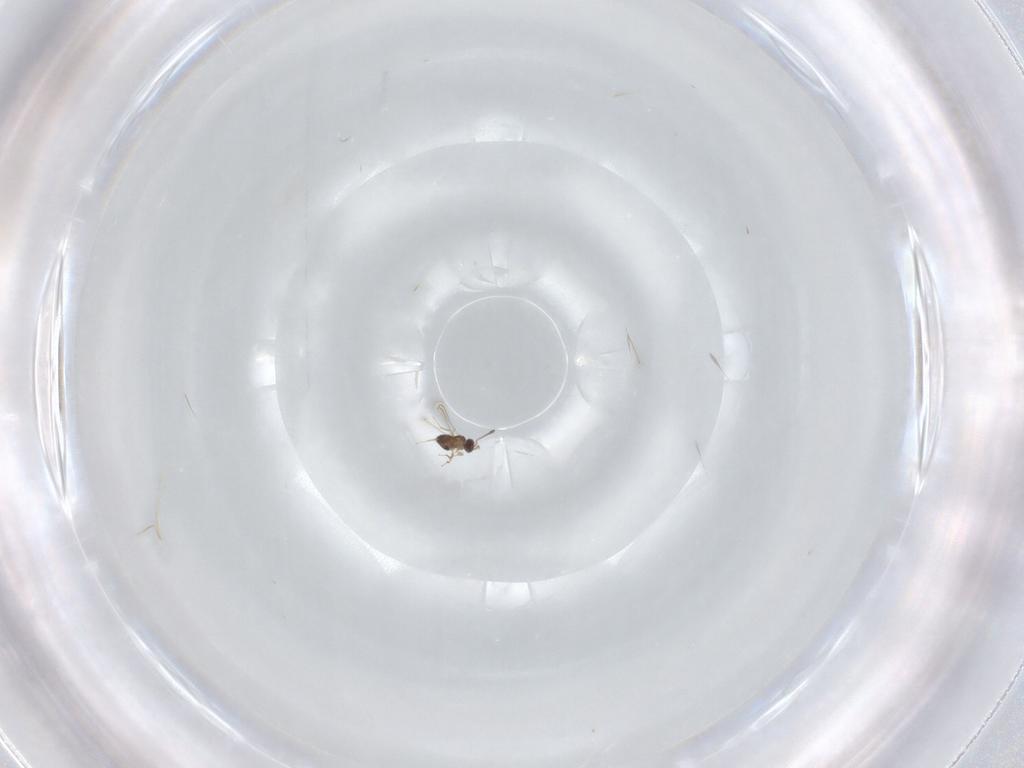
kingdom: Animalia
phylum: Arthropoda
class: Insecta
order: Hymenoptera
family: Mymaridae
